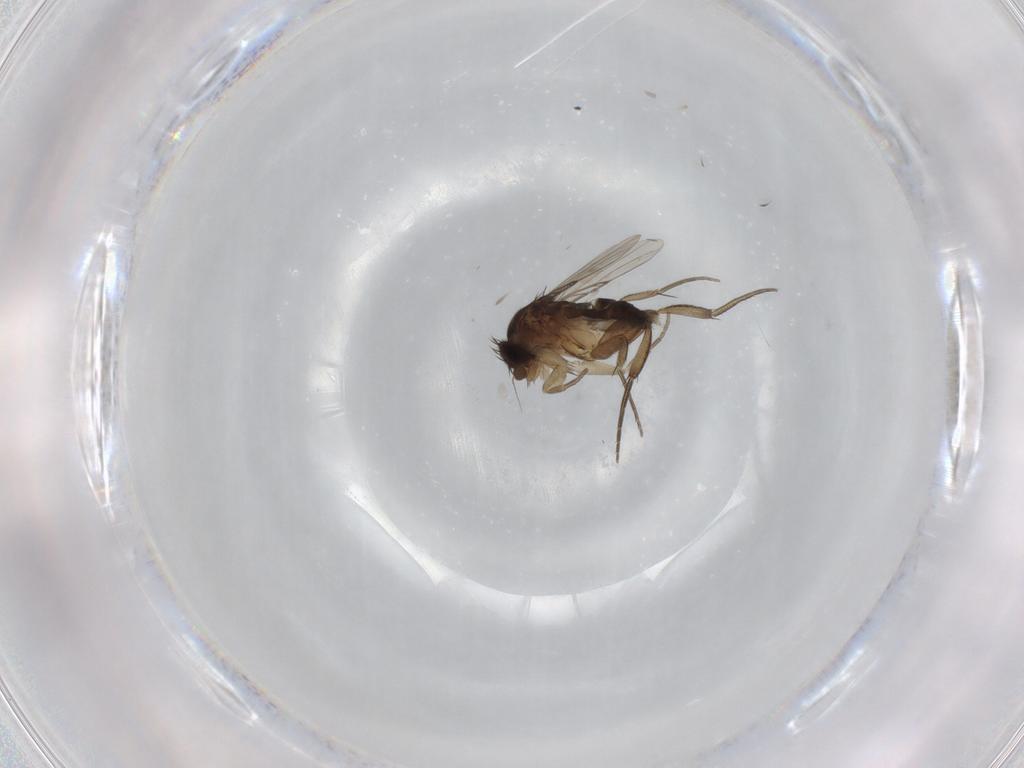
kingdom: Animalia
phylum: Arthropoda
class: Insecta
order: Diptera
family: Phoridae
